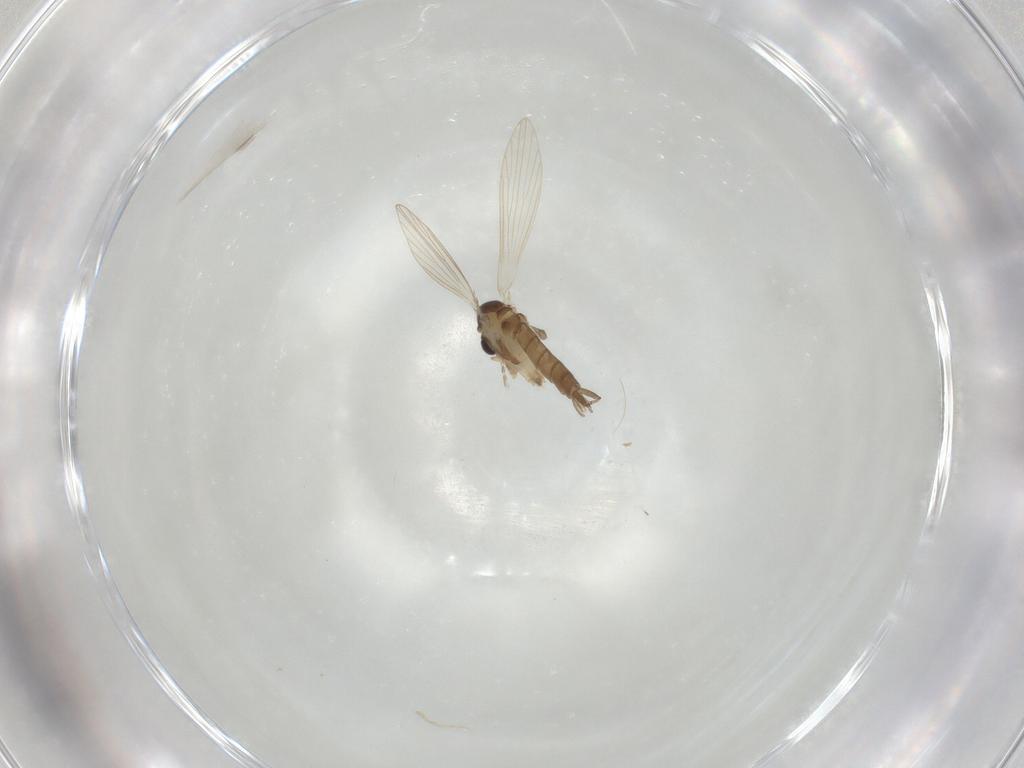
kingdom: Animalia
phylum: Arthropoda
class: Insecta
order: Diptera
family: Psychodidae
